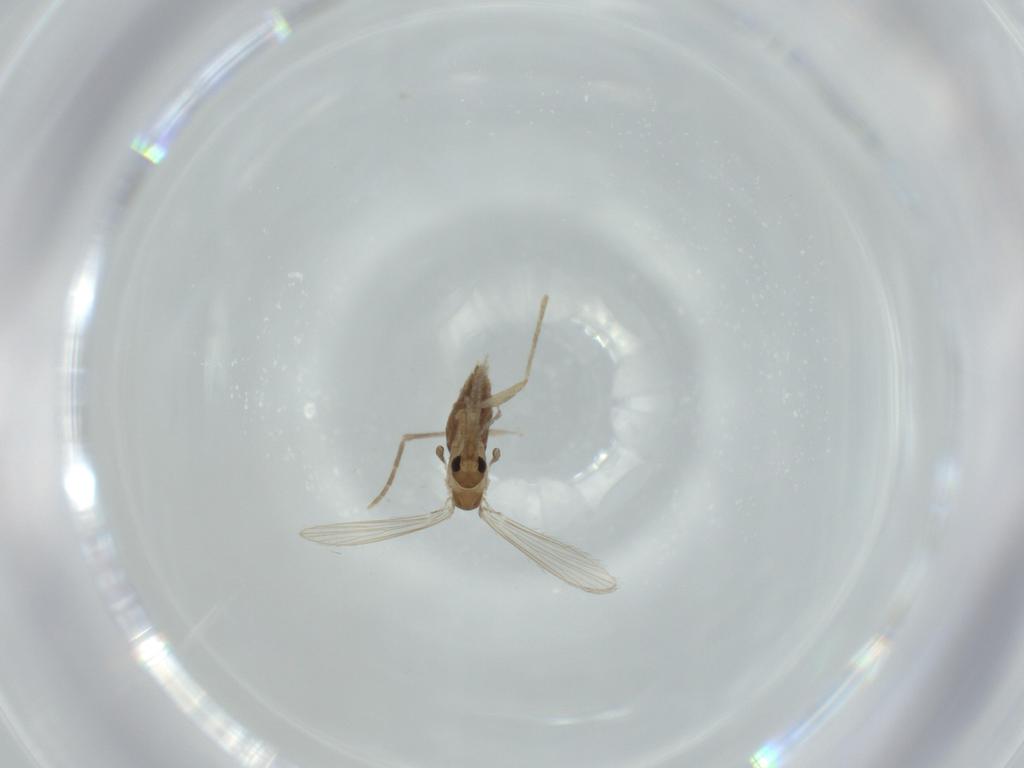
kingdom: Animalia
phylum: Arthropoda
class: Insecta
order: Diptera
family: Psychodidae
